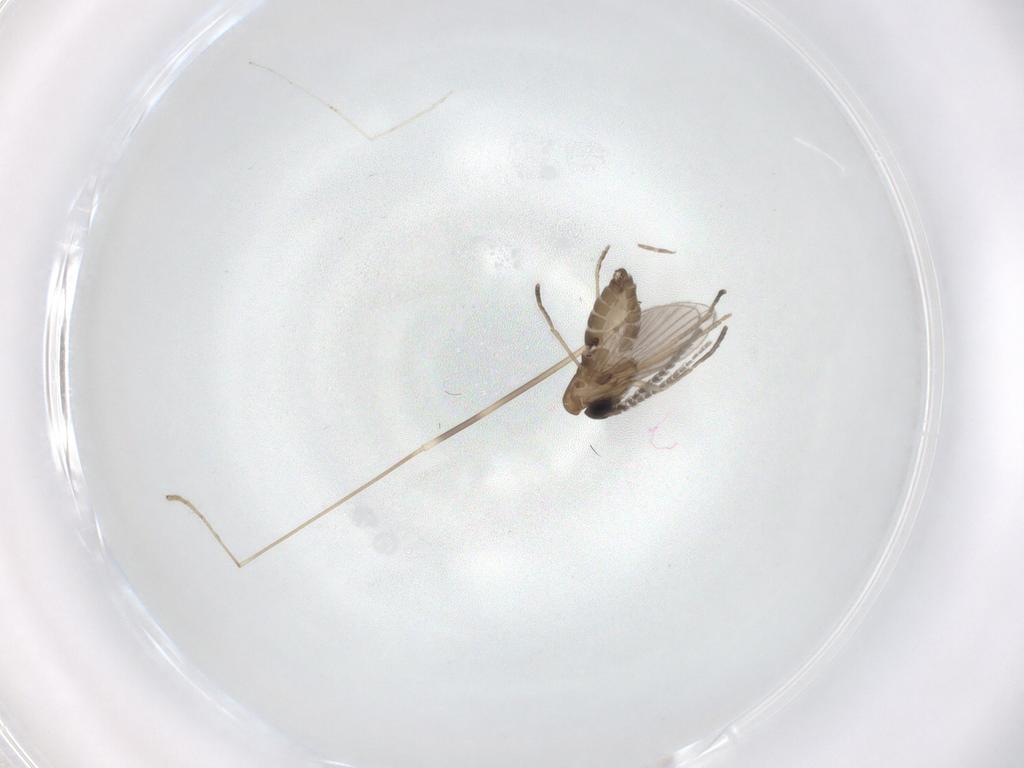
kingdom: Animalia
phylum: Arthropoda
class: Insecta
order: Diptera
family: Limoniidae
